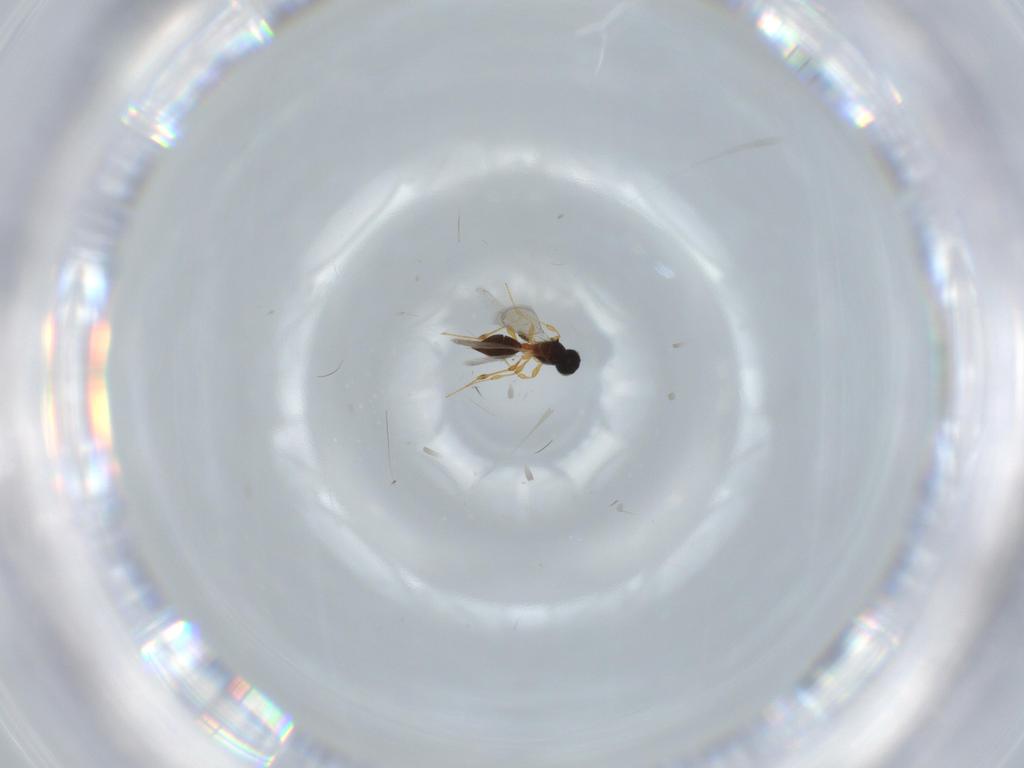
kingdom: Animalia
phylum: Arthropoda
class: Insecta
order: Hymenoptera
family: Platygastridae
